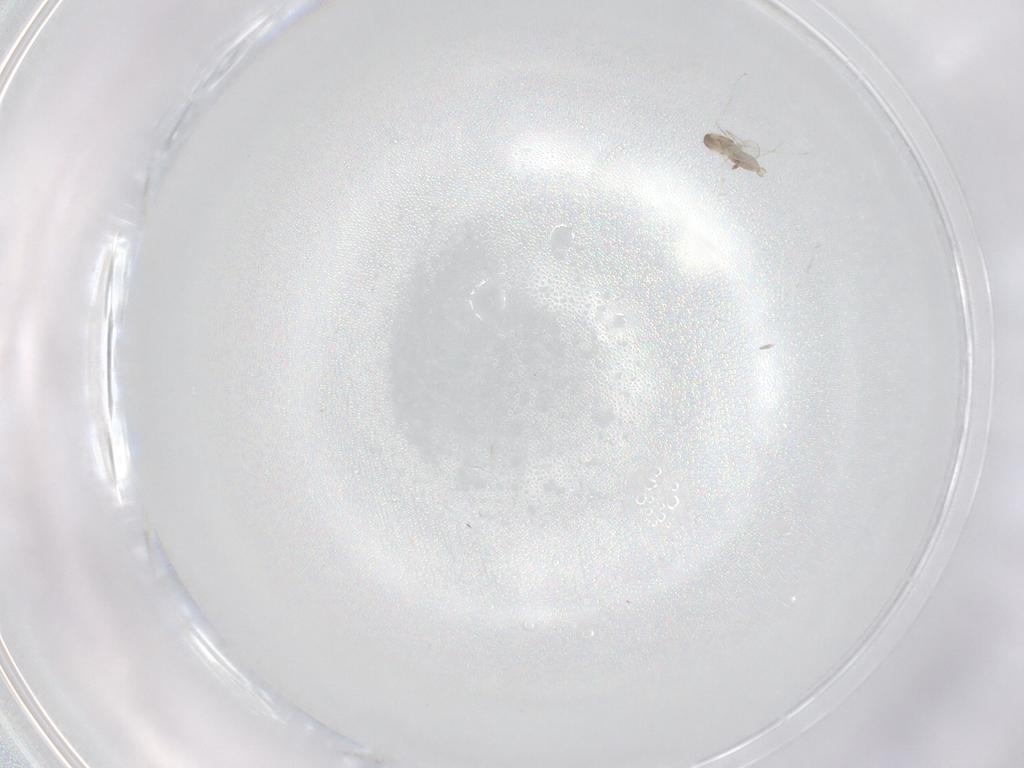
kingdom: Animalia
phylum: Arthropoda
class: Insecta
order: Diptera
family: Cecidomyiidae
